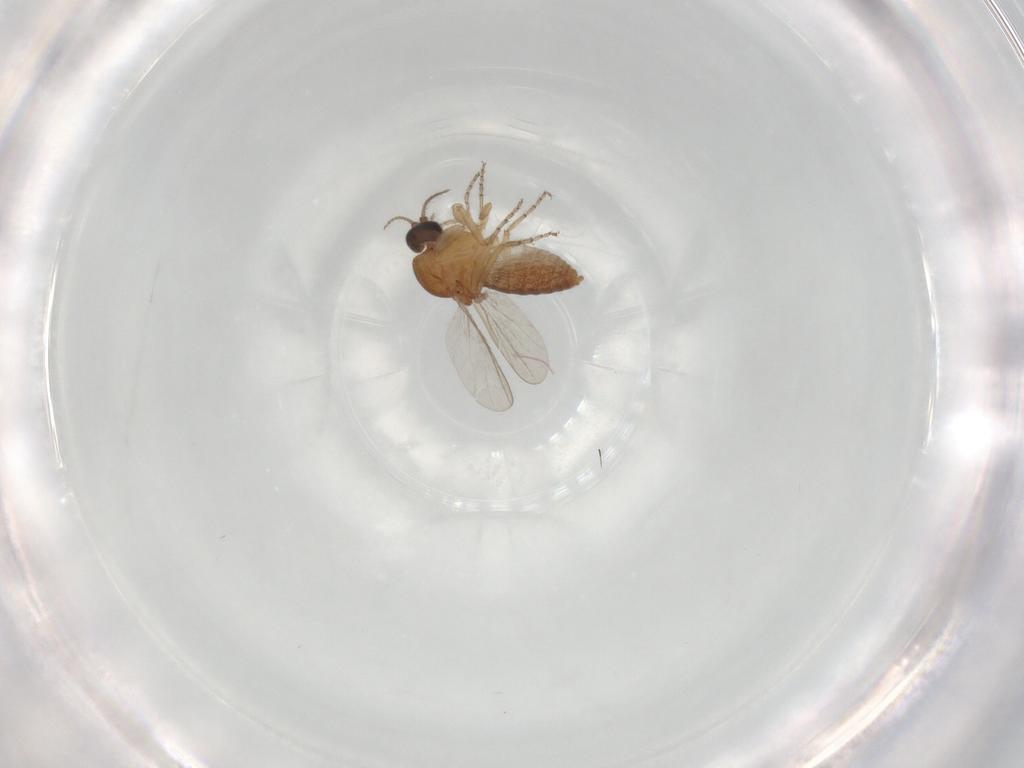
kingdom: Animalia
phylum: Arthropoda
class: Insecta
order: Diptera
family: Ceratopogonidae
